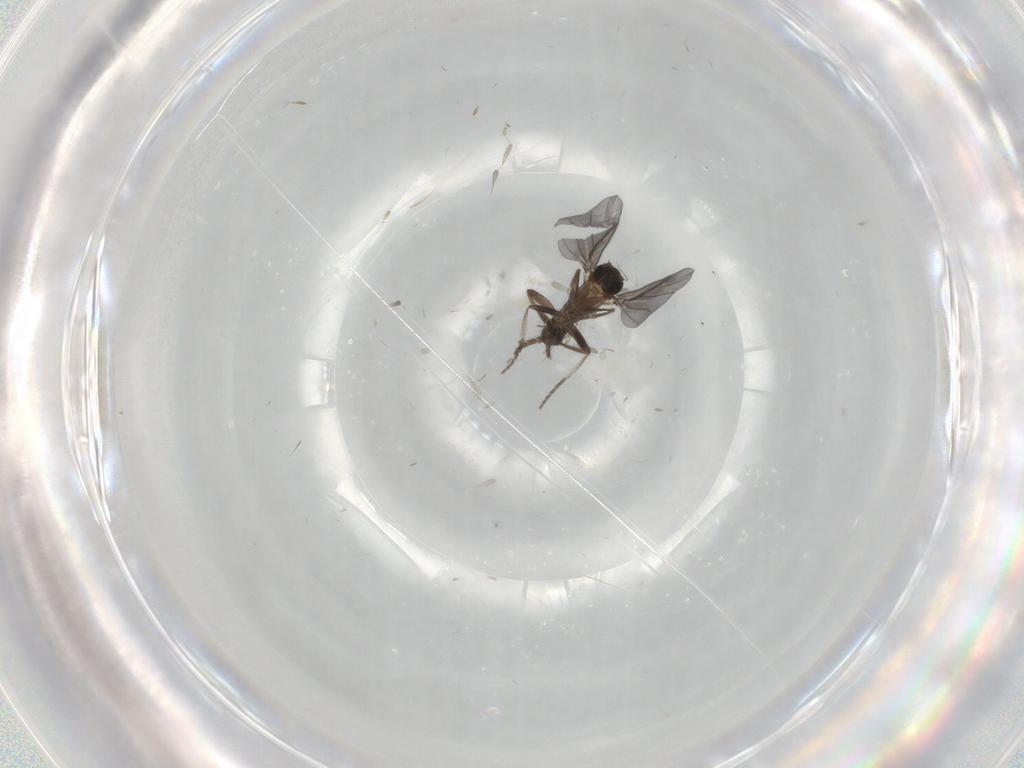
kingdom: Animalia
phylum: Arthropoda
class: Insecta
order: Diptera
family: Phoridae
